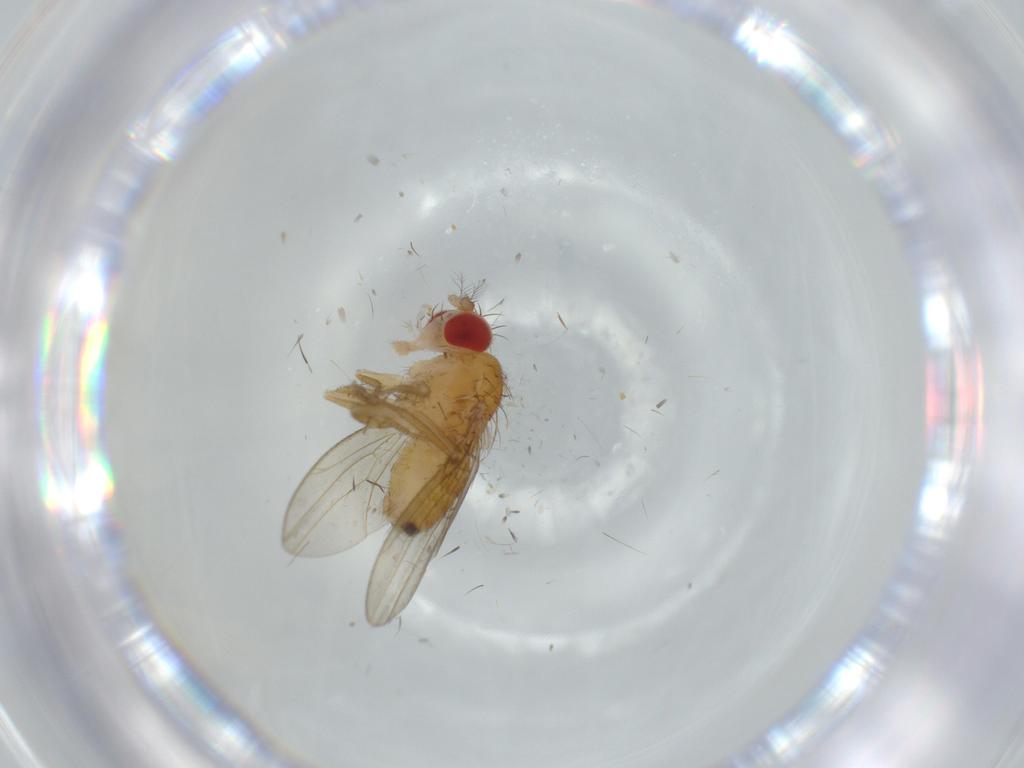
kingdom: Animalia
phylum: Arthropoda
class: Insecta
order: Diptera
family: Drosophilidae
